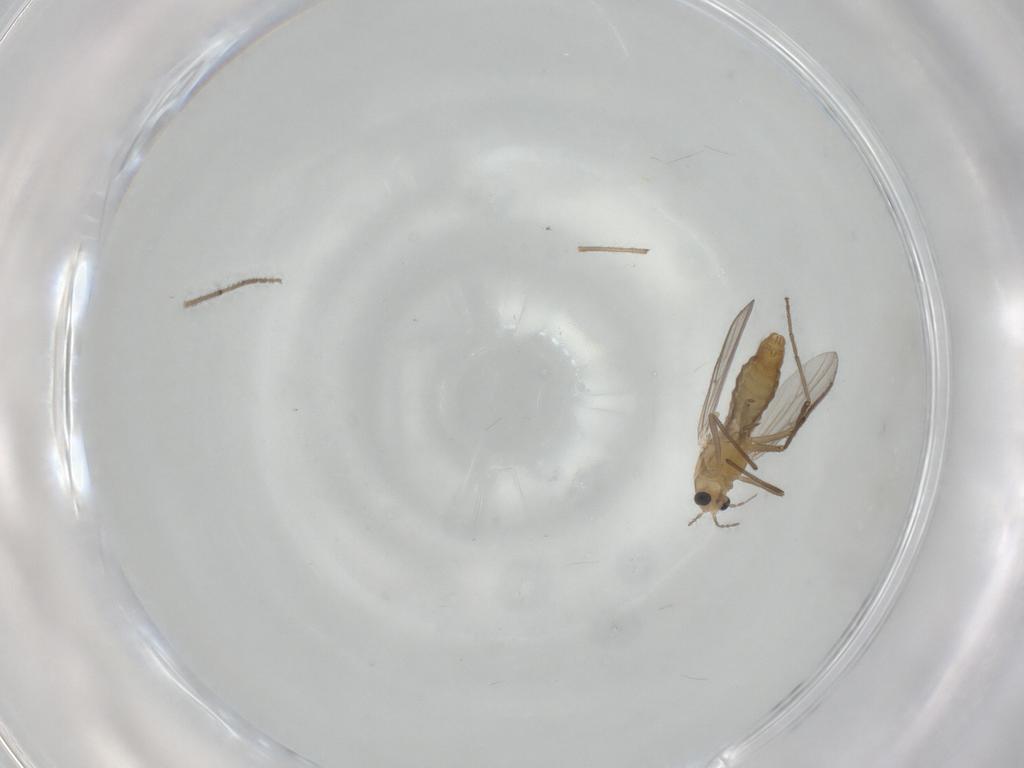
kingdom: Animalia
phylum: Arthropoda
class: Insecta
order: Diptera
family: Chironomidae
